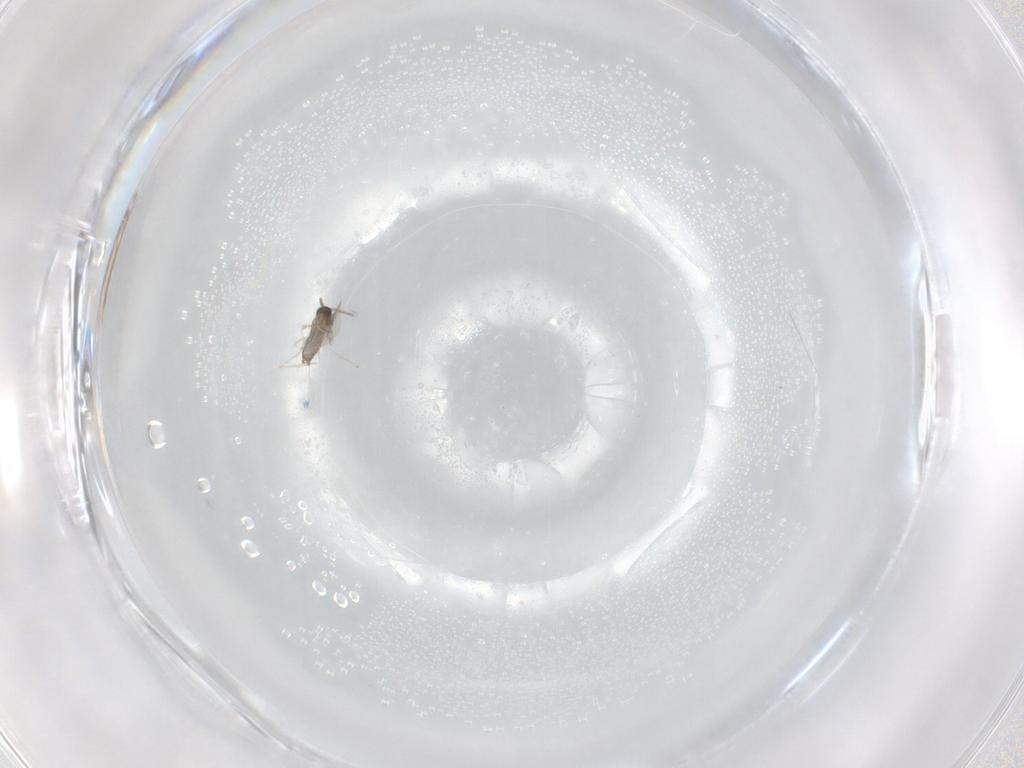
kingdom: Animalia
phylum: Arthropoda
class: Insecta
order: Diptera
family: Cecidomyiidae
